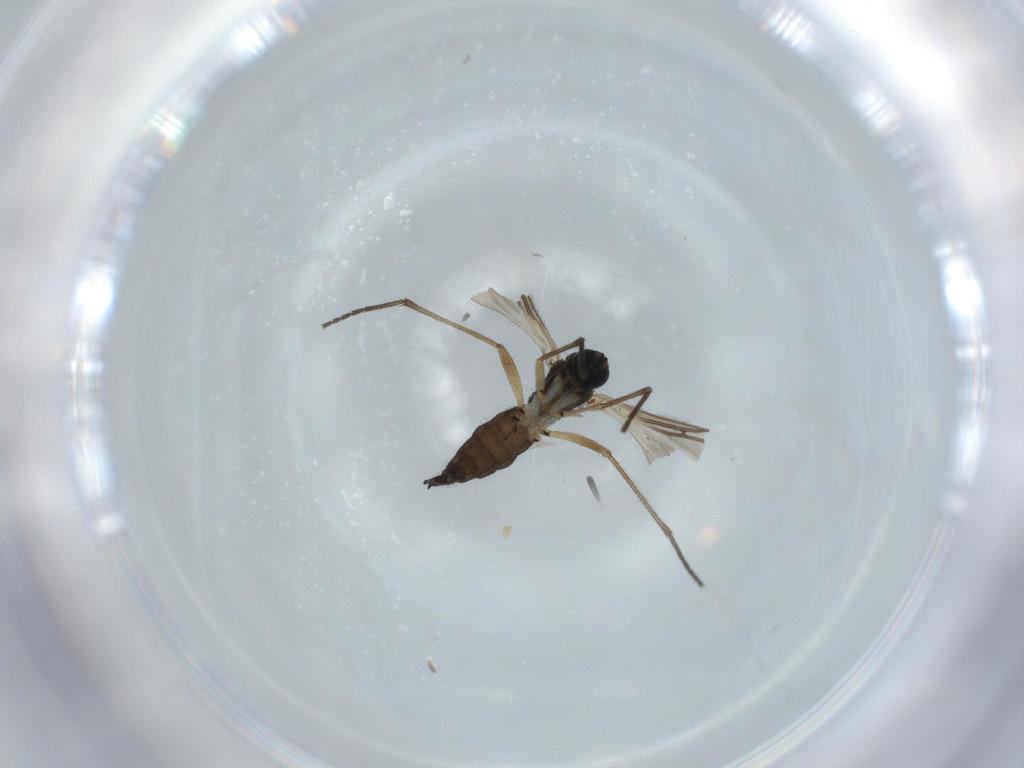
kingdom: Animalia
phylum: Arthropoda
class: Insecta
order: Diptera
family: Sciaridae
